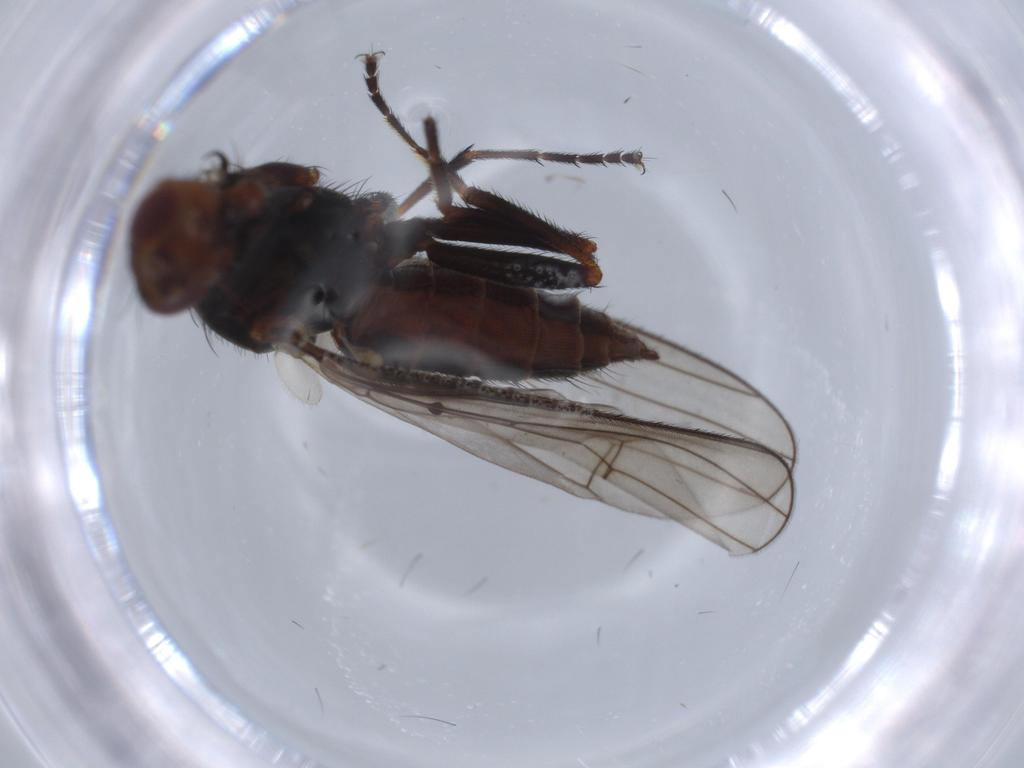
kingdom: Animalia
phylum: Arthropoda
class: Insecta
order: Diptera
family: Heleomyzidae
